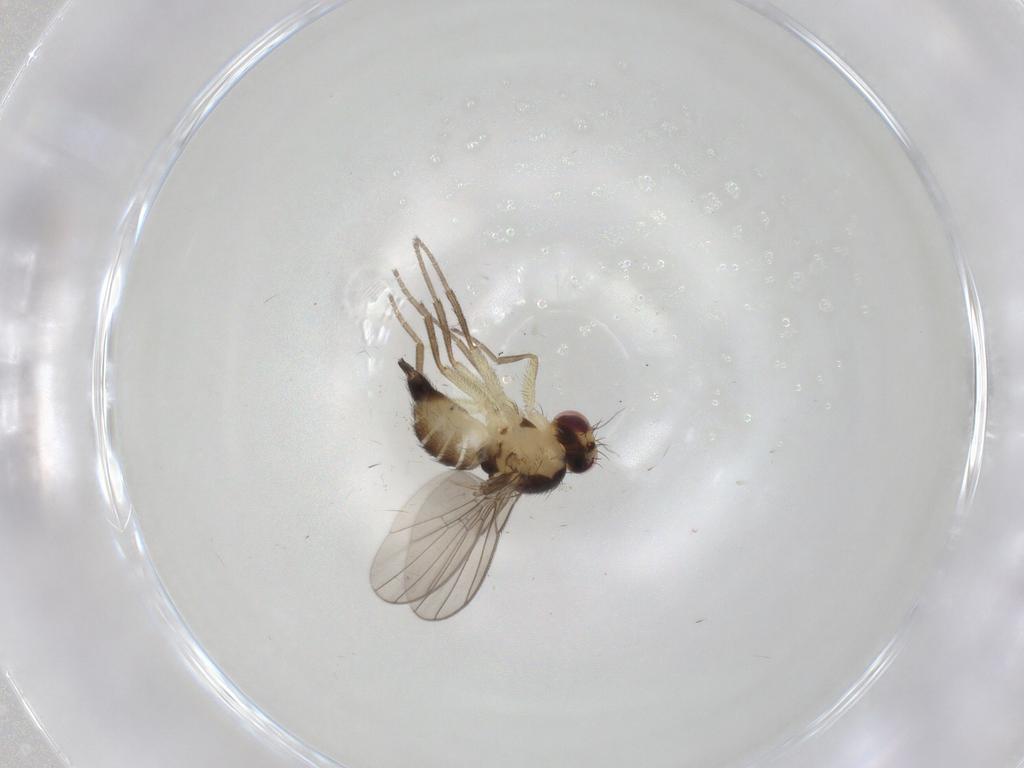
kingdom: Animalia
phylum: Arthropoda
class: Insecta
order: Diptera
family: Agromyzidae
